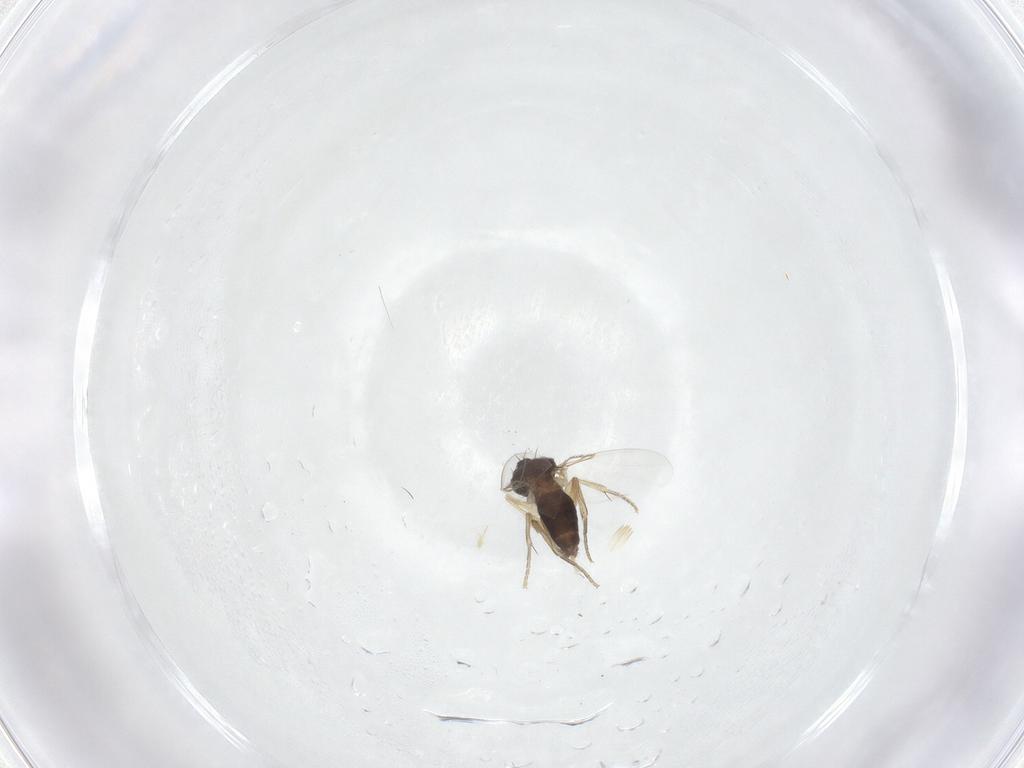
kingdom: Animalia
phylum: Arthropoda
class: Insecta
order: Diptera
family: Phoridae
